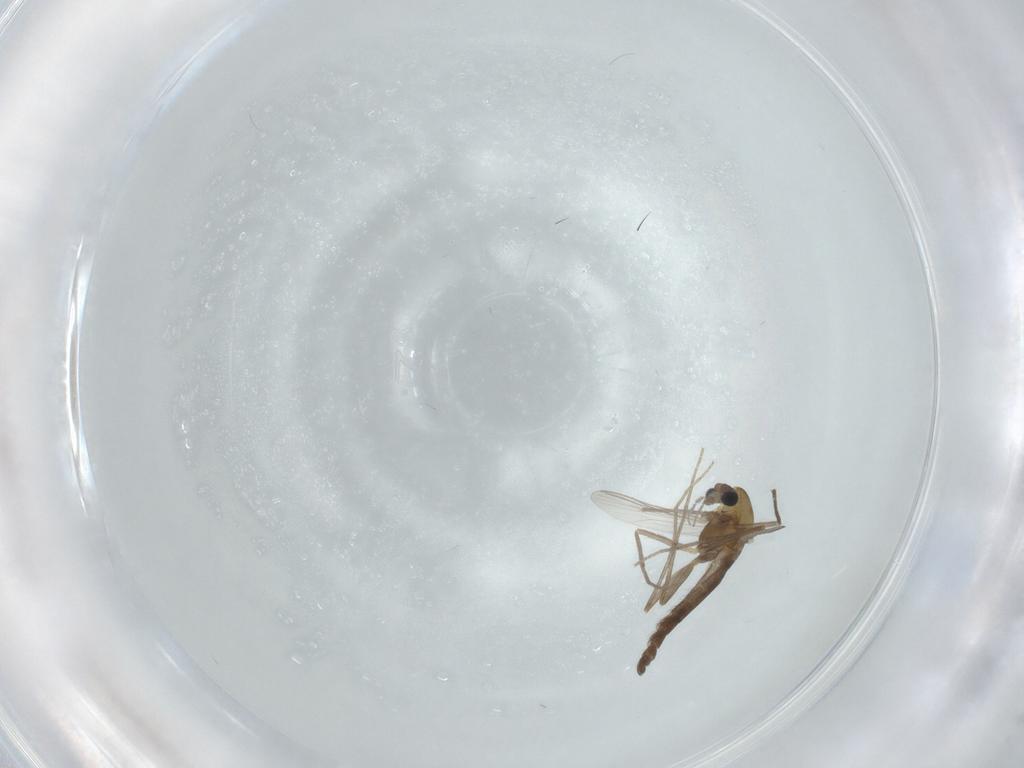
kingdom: Animalia
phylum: Arthropoda
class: Insecta
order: Diptera
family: Chironomidae
